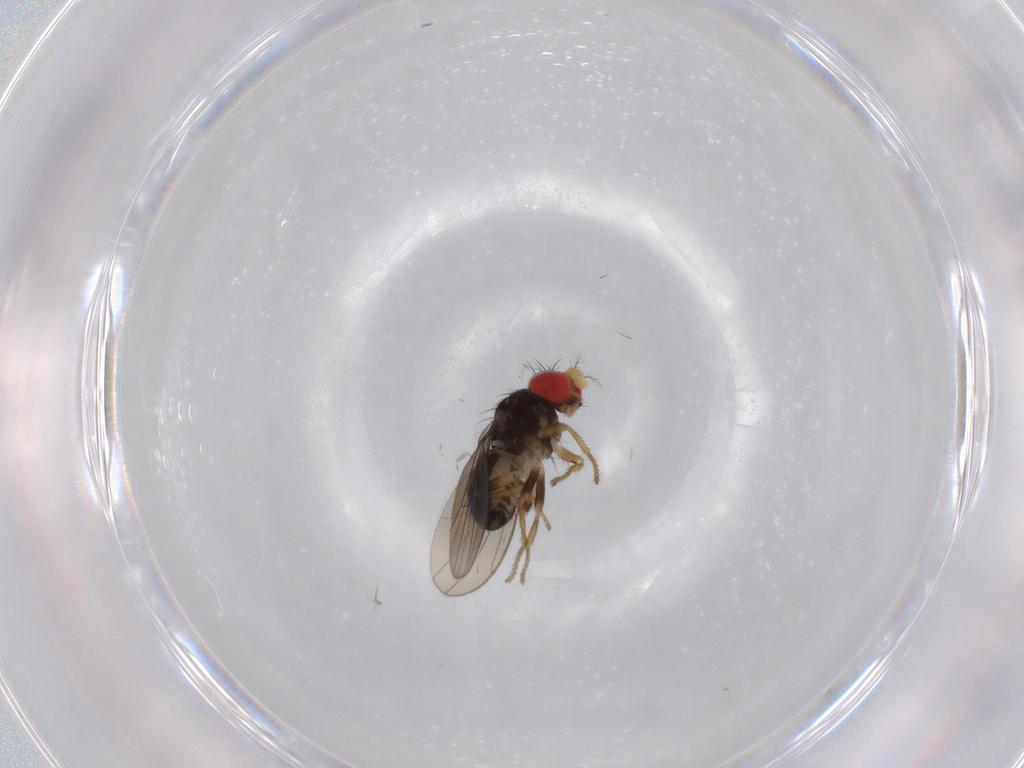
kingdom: Animalia
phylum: Arthropoda
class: Insecta
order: Diptera
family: Drosophilidae
